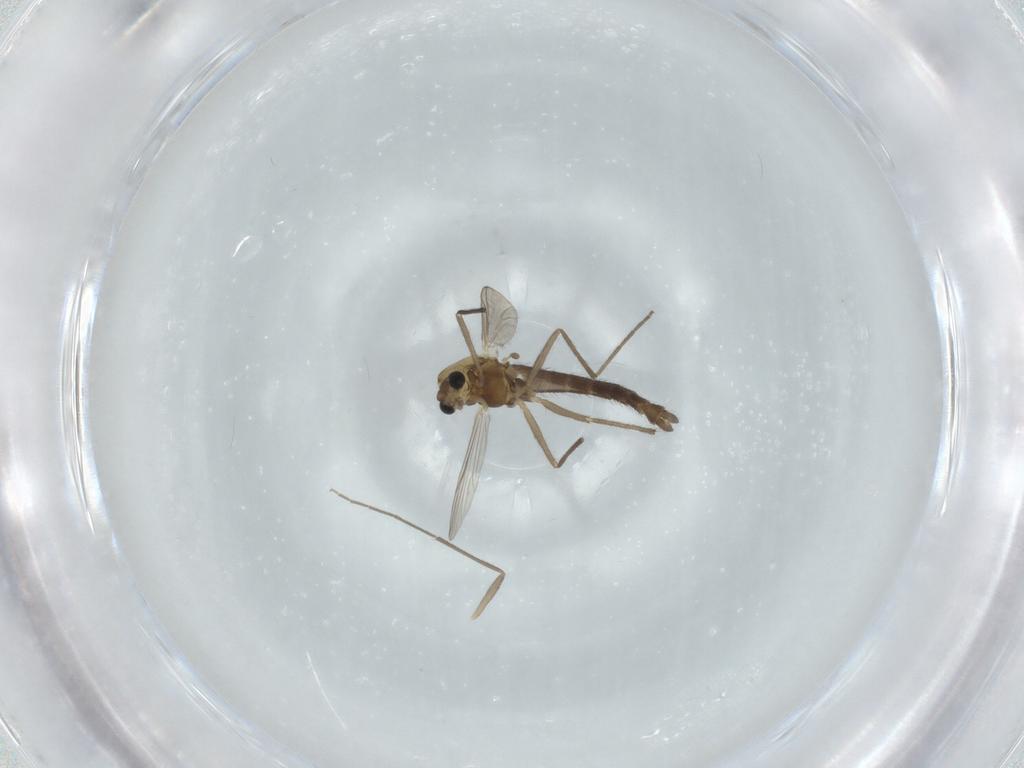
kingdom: Animalia
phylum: Arthropoda
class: Insecta
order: Diptera
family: Chironomidae
